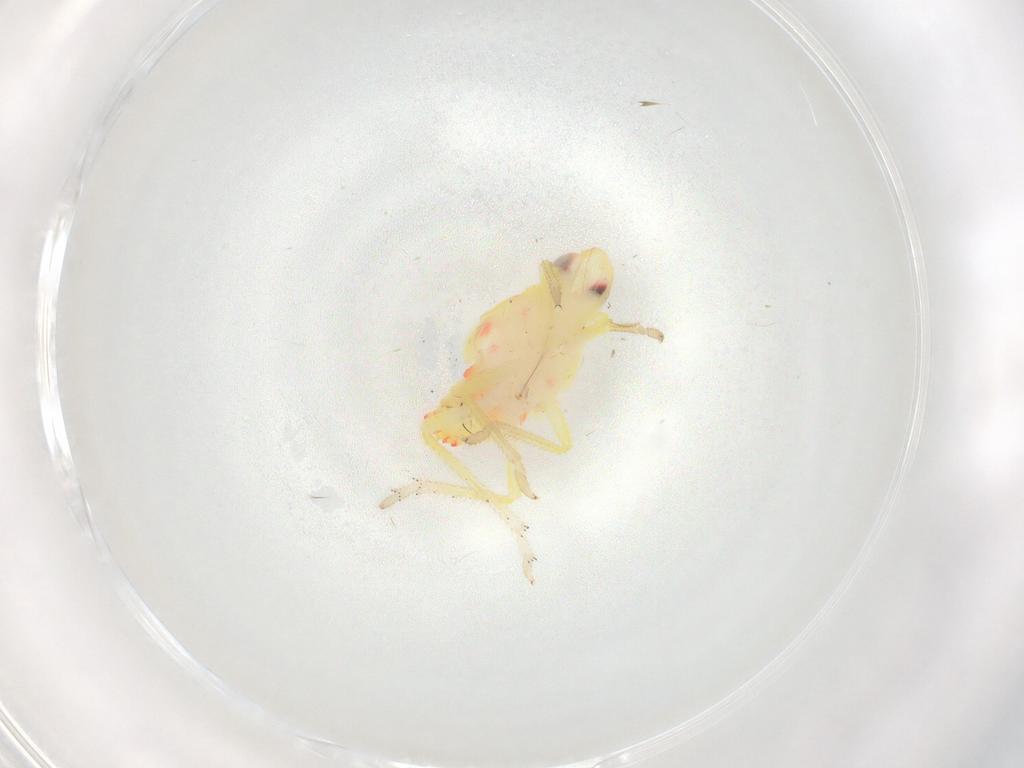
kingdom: Animalia
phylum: Arthropoda
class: Insecta
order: Hemiptera
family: Tropiduchidae
